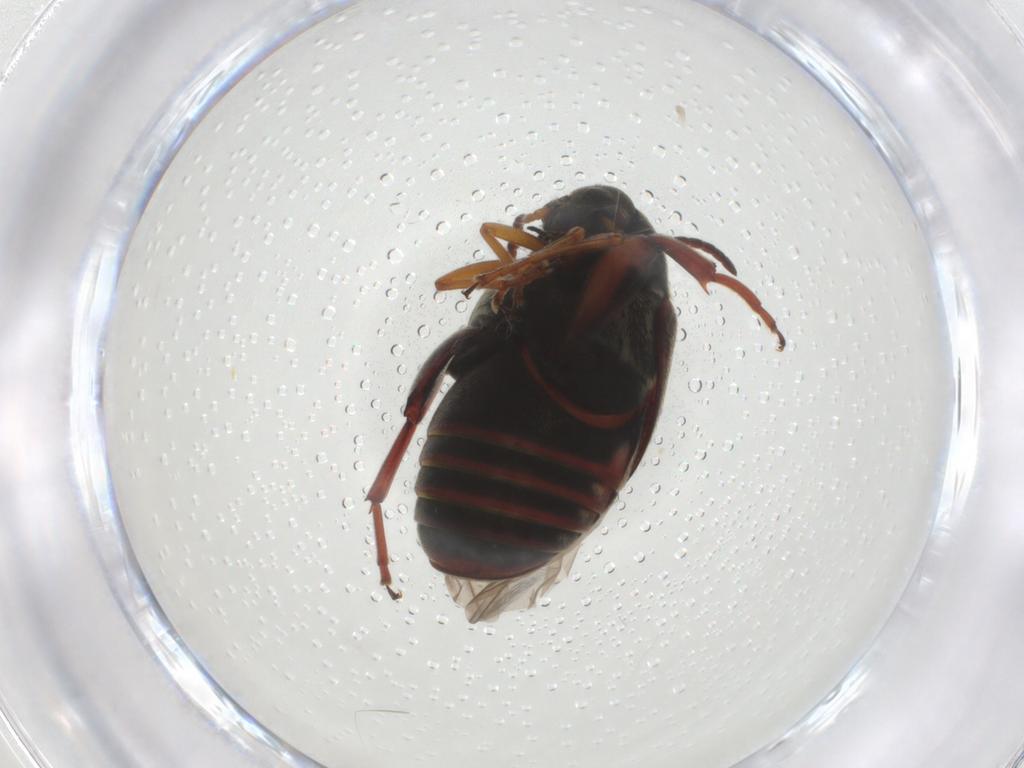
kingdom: Animalia
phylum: Arthropoda
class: Insecta
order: Coleoptera
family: Chrysomelidae
